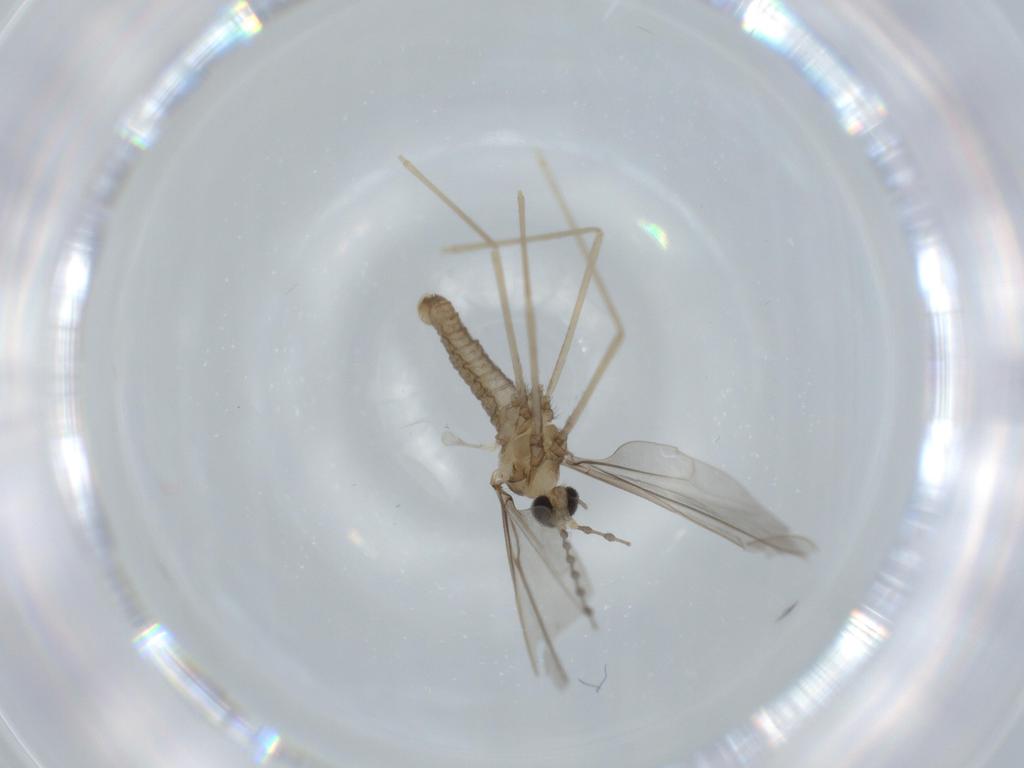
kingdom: Animalia
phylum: Arthropoda
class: Insecta
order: Diptera
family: Cecidomyiidae
